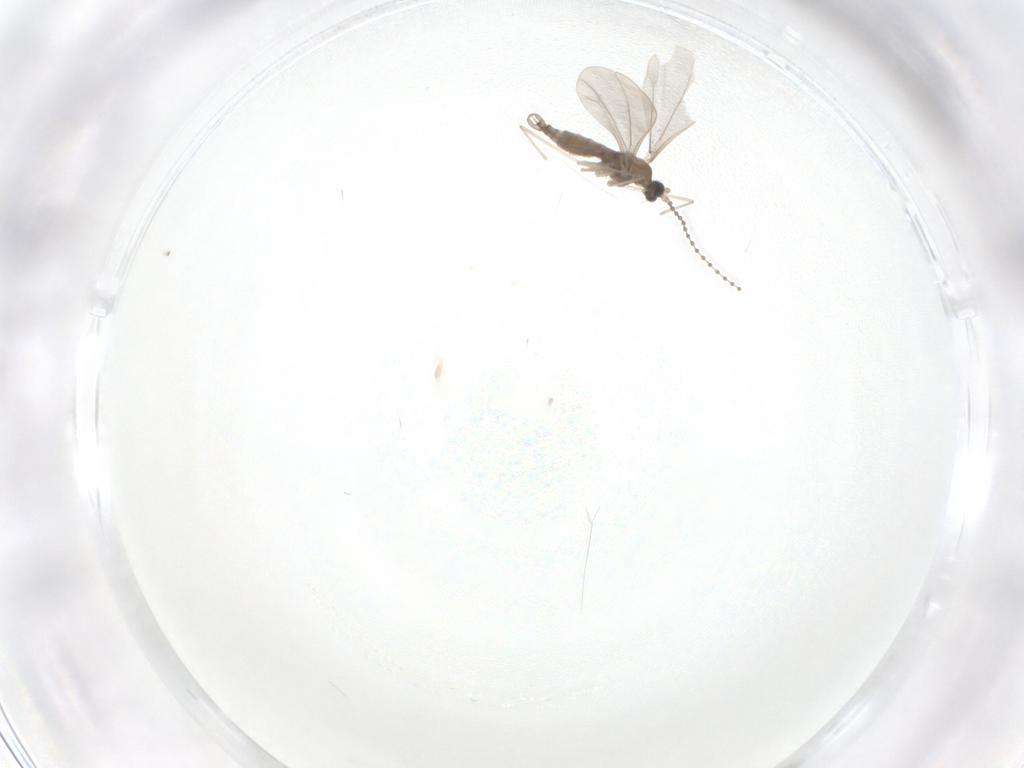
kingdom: Animalia
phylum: Arthropoda
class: Insecta
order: Diptera
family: Cecidomyiidae
